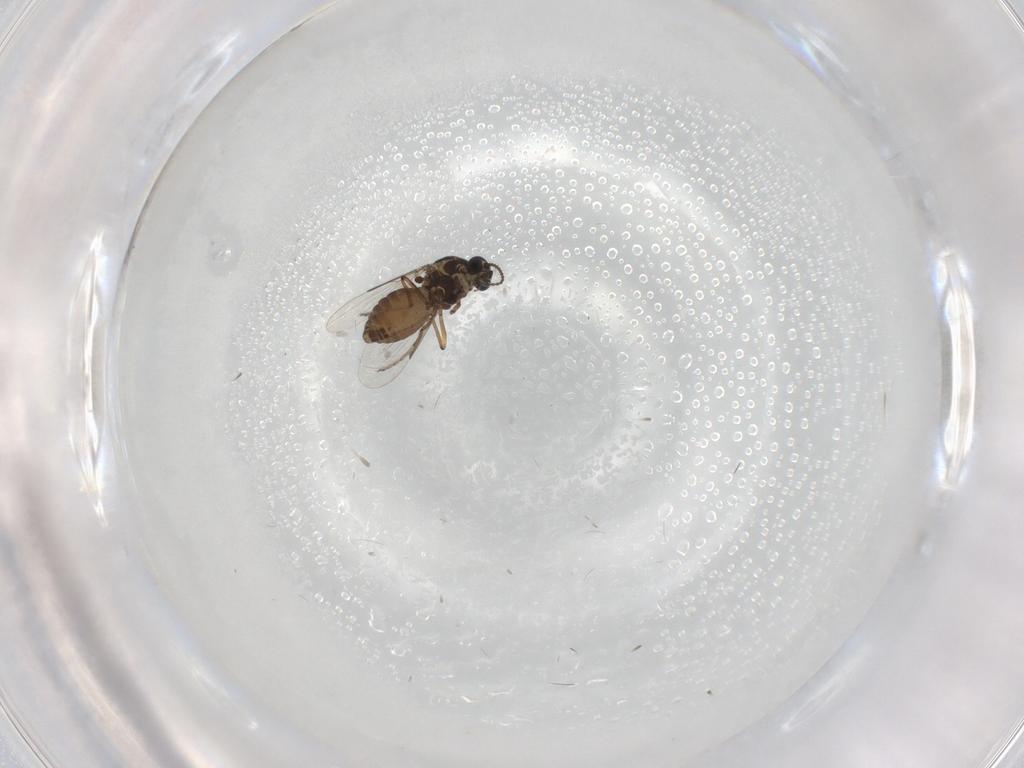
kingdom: Animalia
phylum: Arthropoda
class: Insecta
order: Diptera
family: Ceratopogonidae
